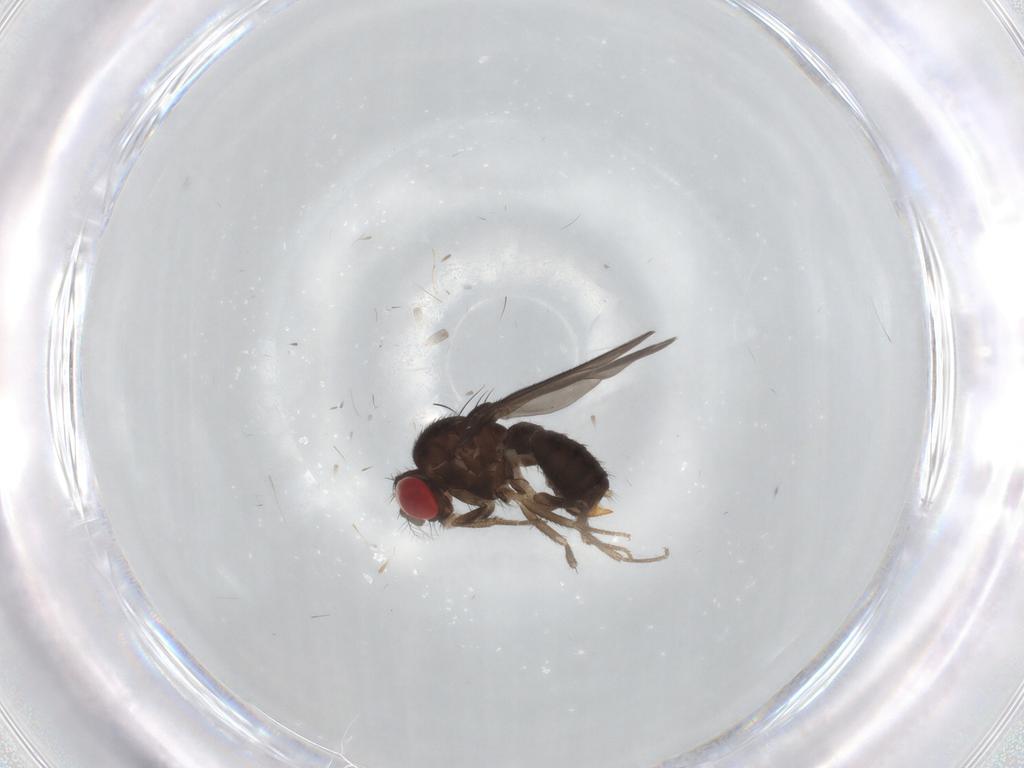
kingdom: Animalia
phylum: Arthropoda
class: Insecta
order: Diptera
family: Drosophilidae
